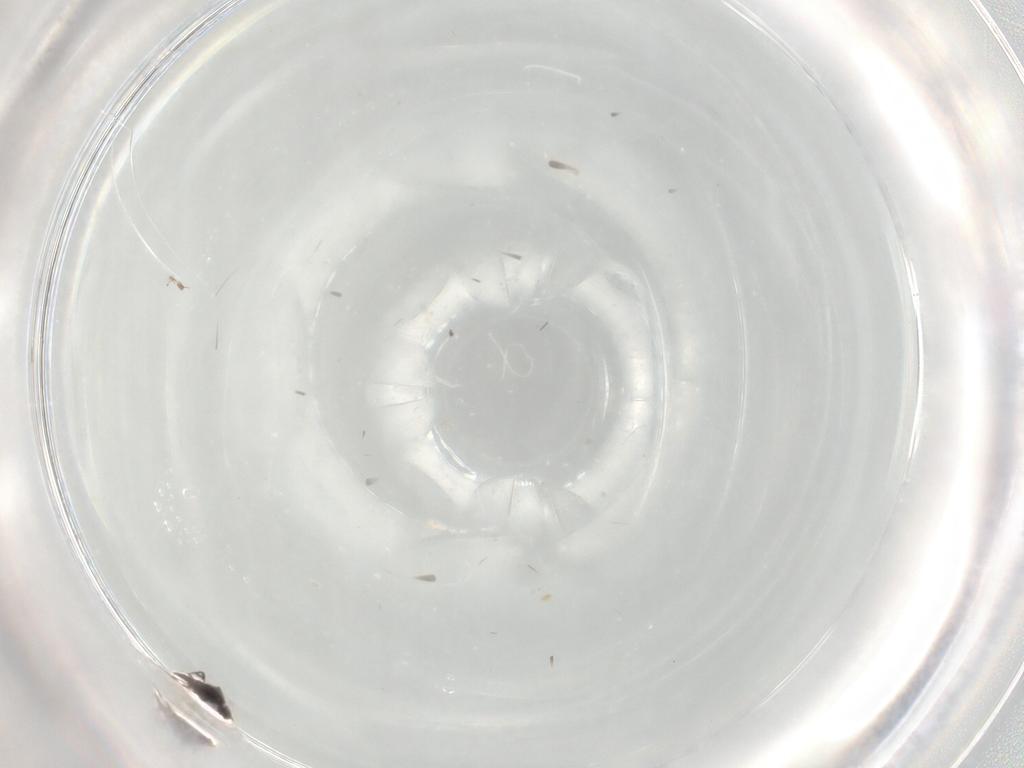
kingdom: Animalia
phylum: Arthropoda
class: Insecta
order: Diptera
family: Sciaridae
